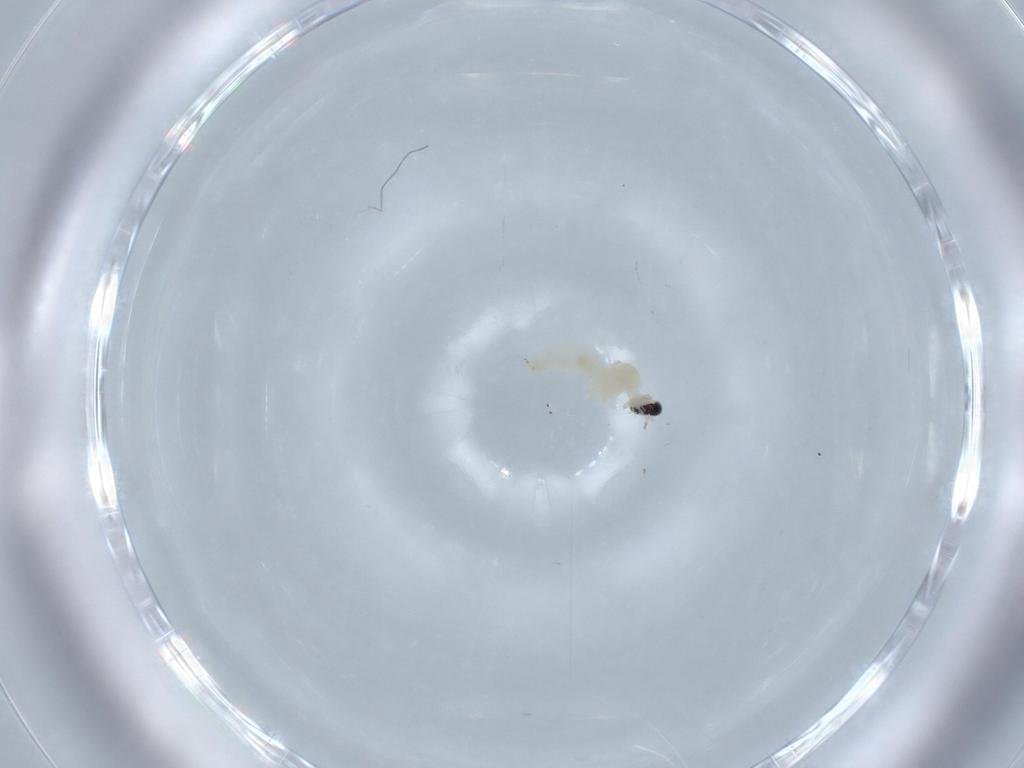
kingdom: Animalia
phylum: Arthropoda
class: Insecta
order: Diptera
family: Cecidomyiidae
